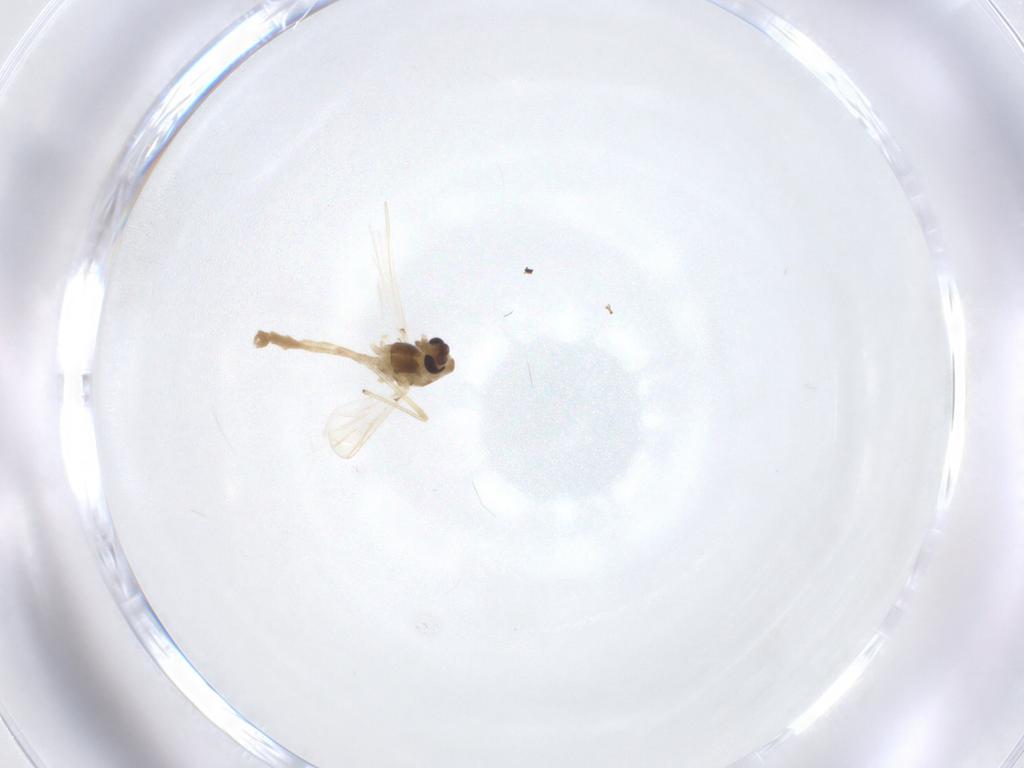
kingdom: Animalia
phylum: Arthropoda
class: Insecta
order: Diptera
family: Chironomidae
